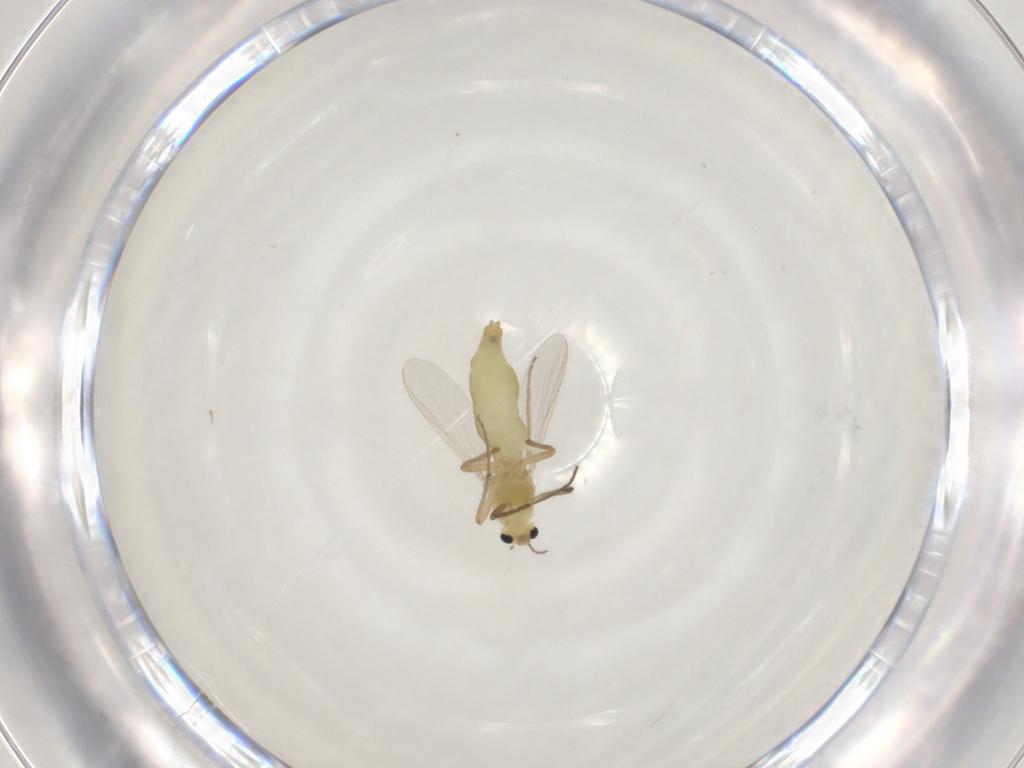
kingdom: Animalia
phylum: Arthropoda
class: Insecta
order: Diptera
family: Chironomidae
